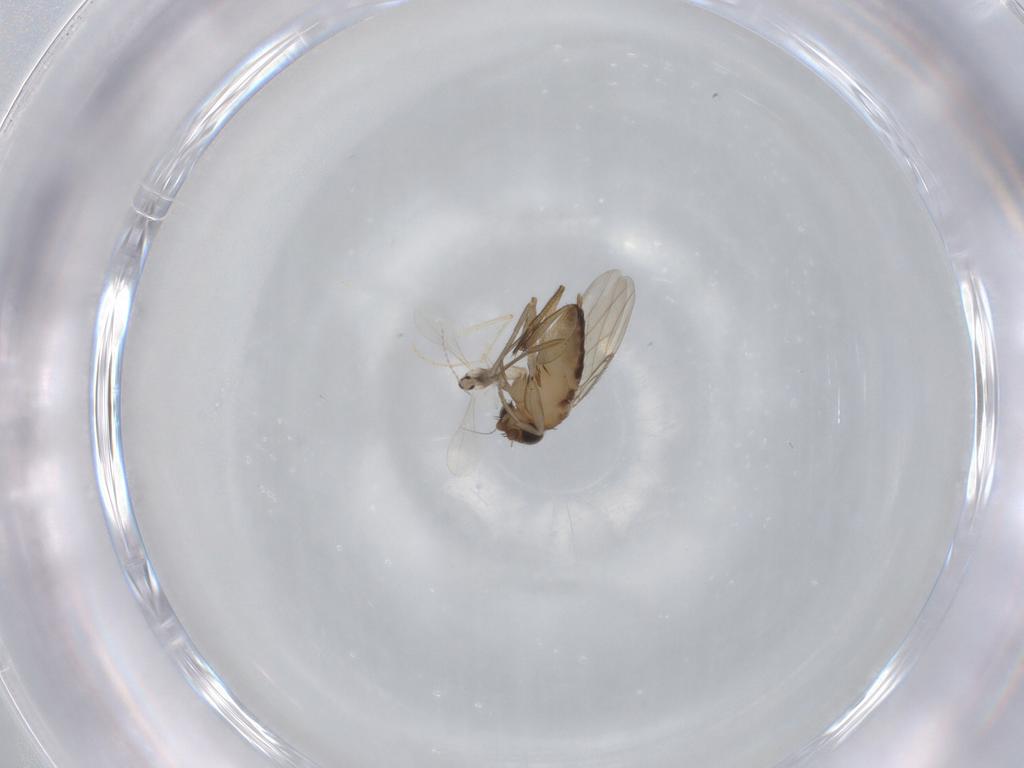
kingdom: Animalia
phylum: Arthropoda
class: Insecta
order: Diptera
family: Phoridae
